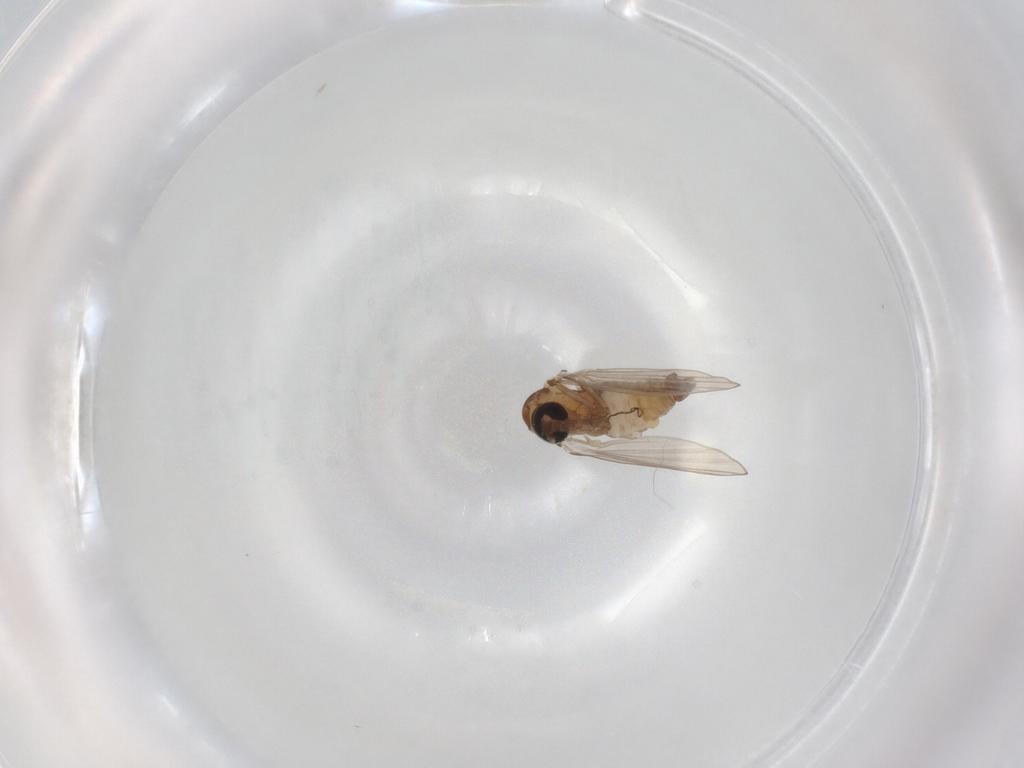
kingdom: Animalia
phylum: Arthropoda
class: Insecta
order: Diptera
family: Psychodidae
